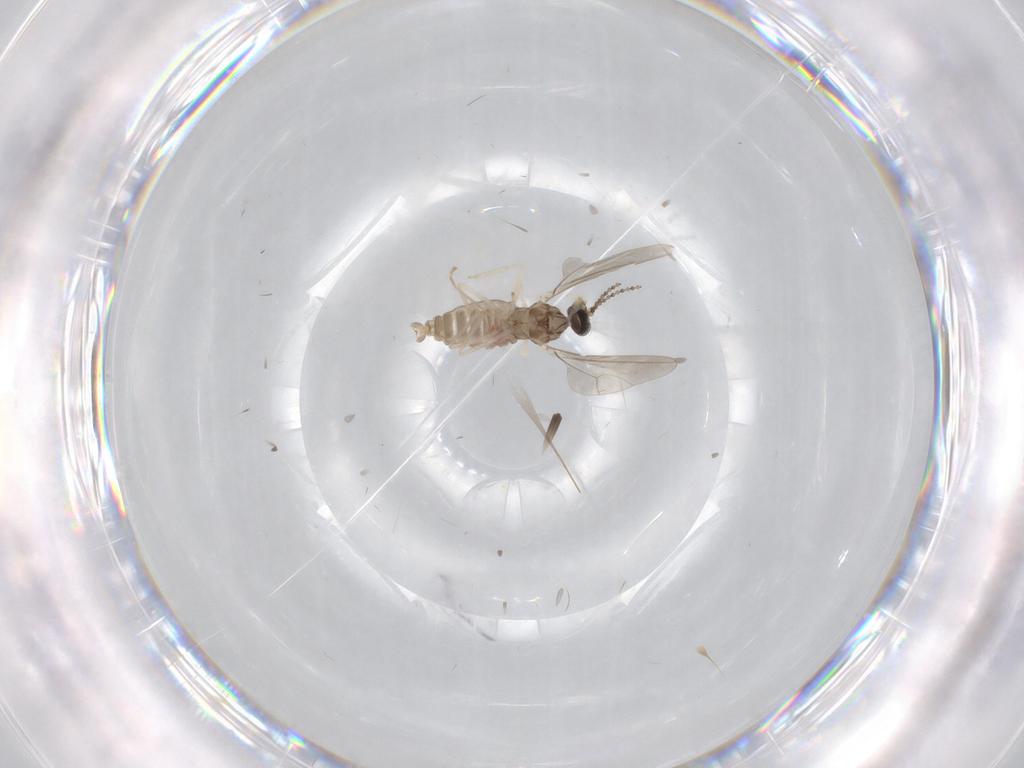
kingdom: Animalia
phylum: Arthropoda
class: Insecta
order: Diptera
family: Cecidomyiidae
